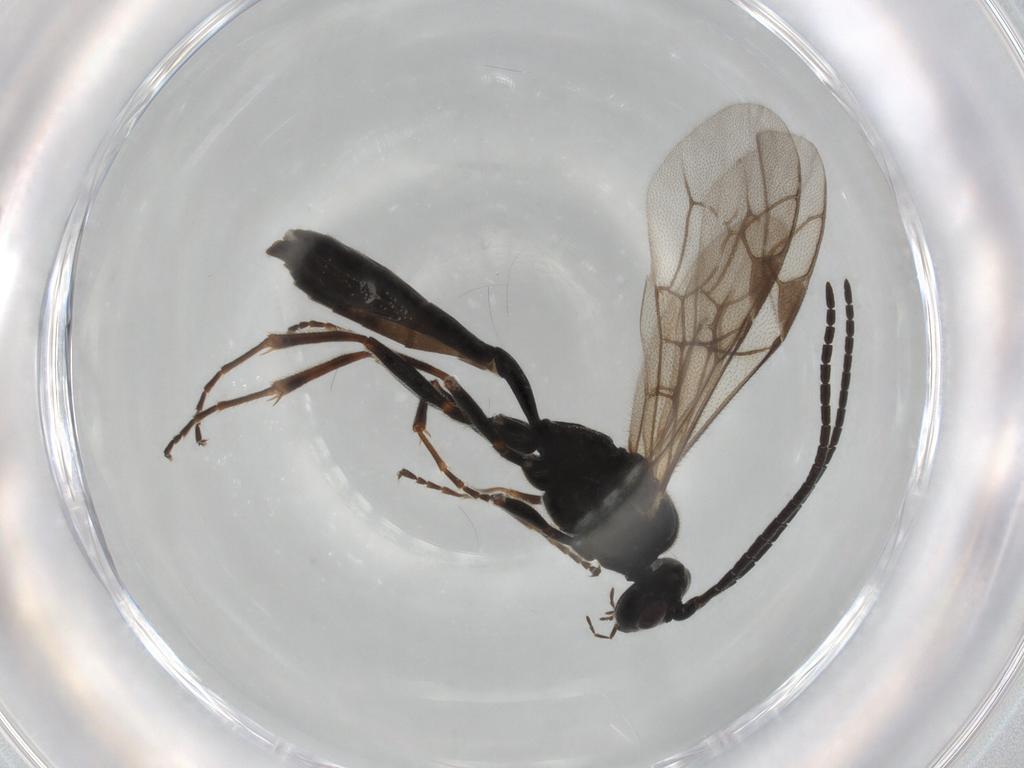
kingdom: Animalia
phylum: Arthropoda
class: Insecta
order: Hymenoptera
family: Ichneumonidae
